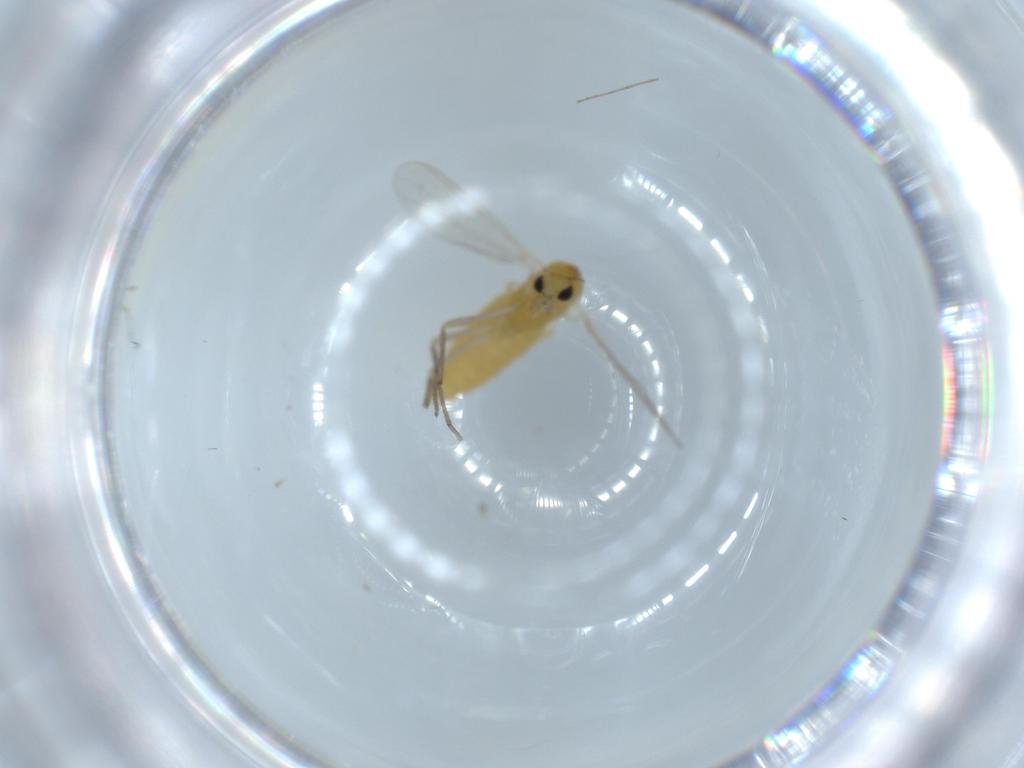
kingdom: Animalia
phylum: Arthropoda
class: Insecta
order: Diptera
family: Chironomidae
